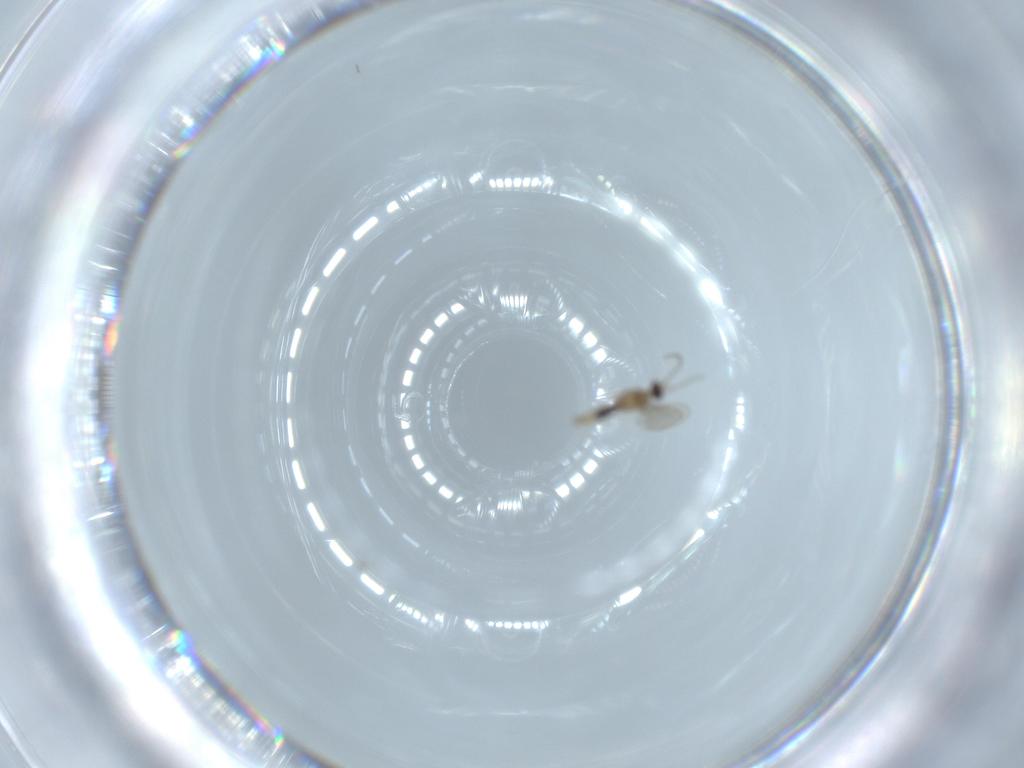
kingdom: Animalia
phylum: Arthropoda
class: Insecta
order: Diptera
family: Cecidomyiidae
